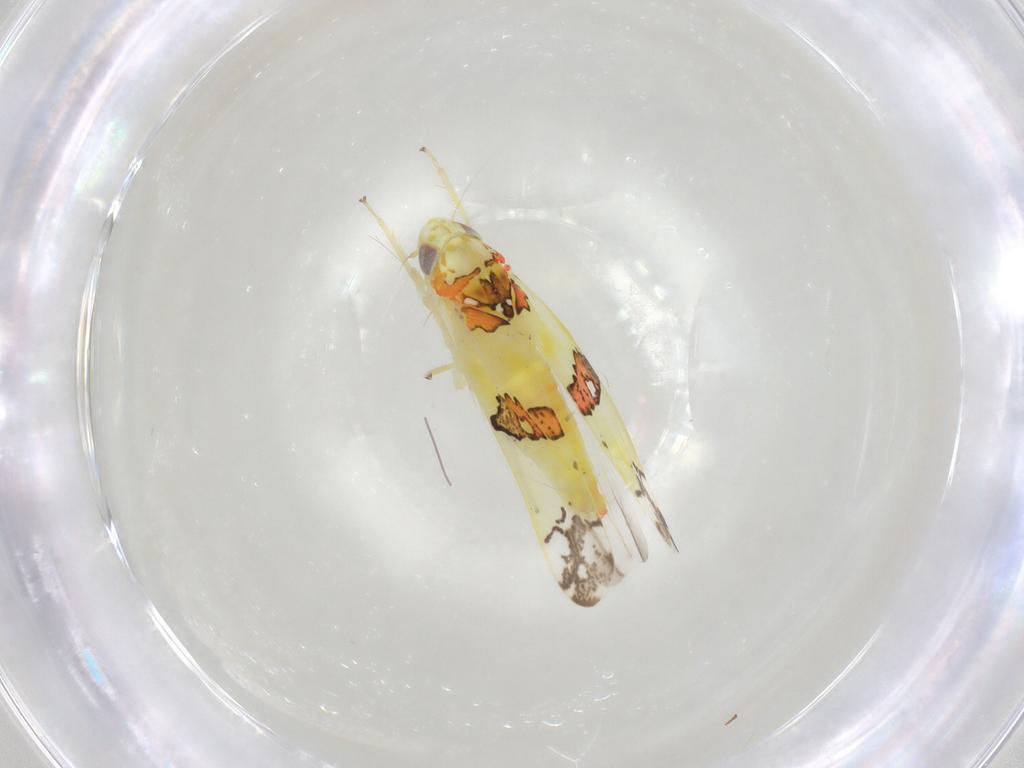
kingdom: Animalia
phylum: Arthropoda
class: Insecta
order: Hemiptera
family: Cicadellidae
